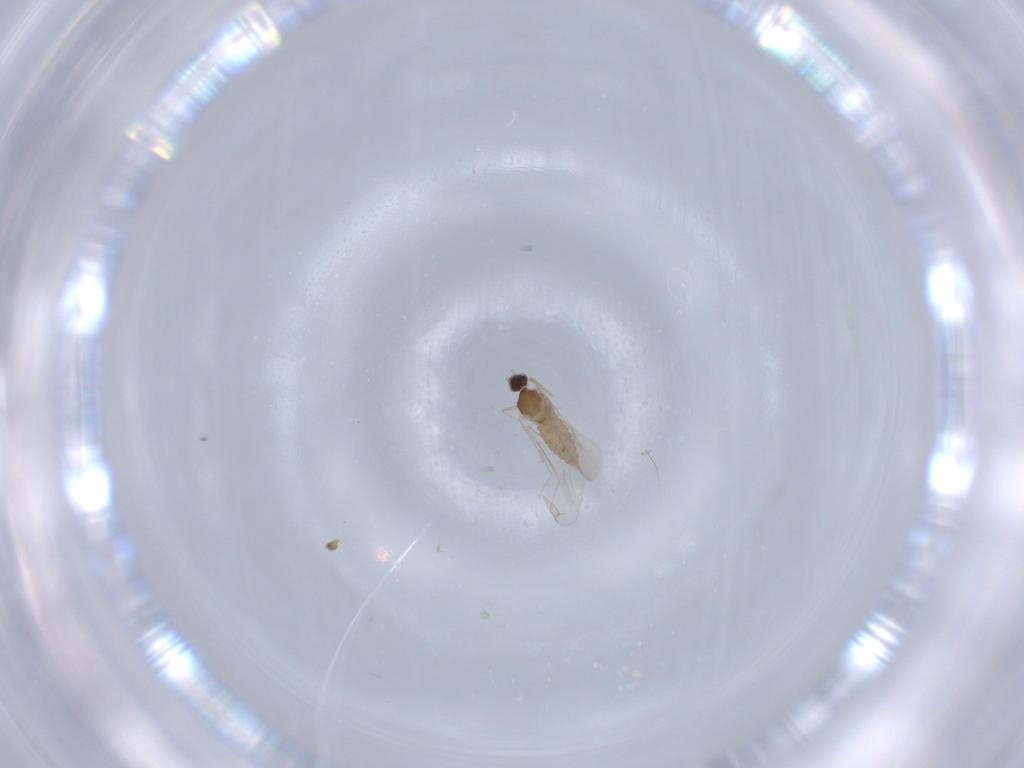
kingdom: Animalia
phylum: Arthropoda
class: Insecta
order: Diptera
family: Cecidomyiidae
